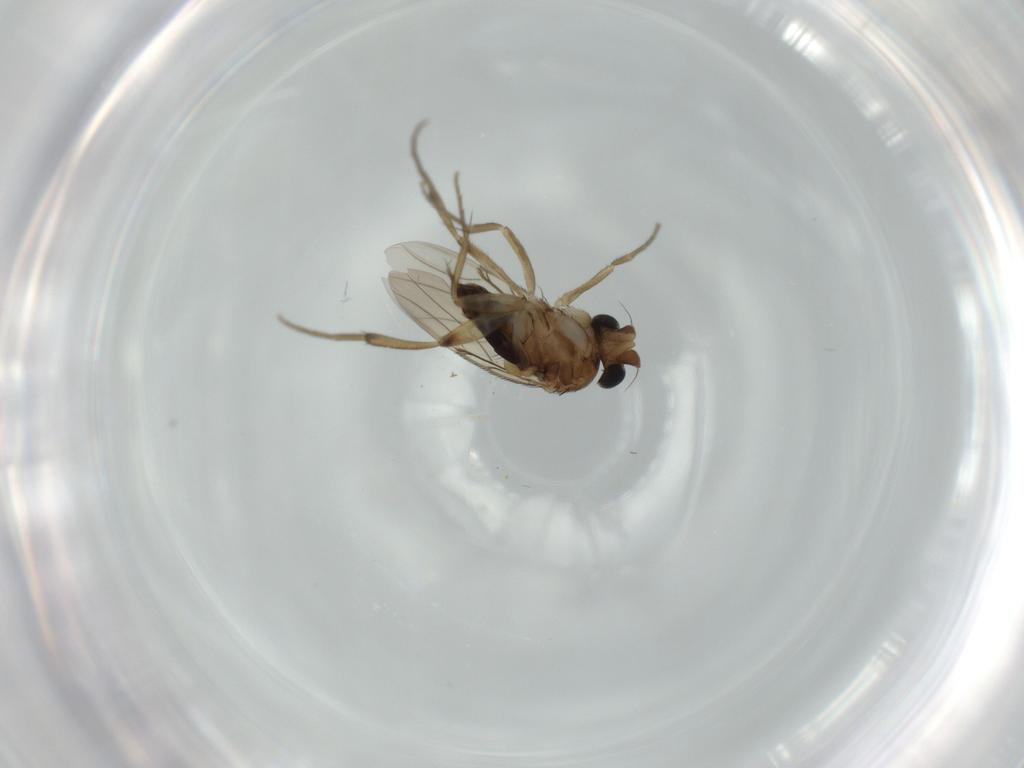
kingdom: Animalia
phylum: Arthropoda
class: Insecta
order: Diptera
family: Phoridae
